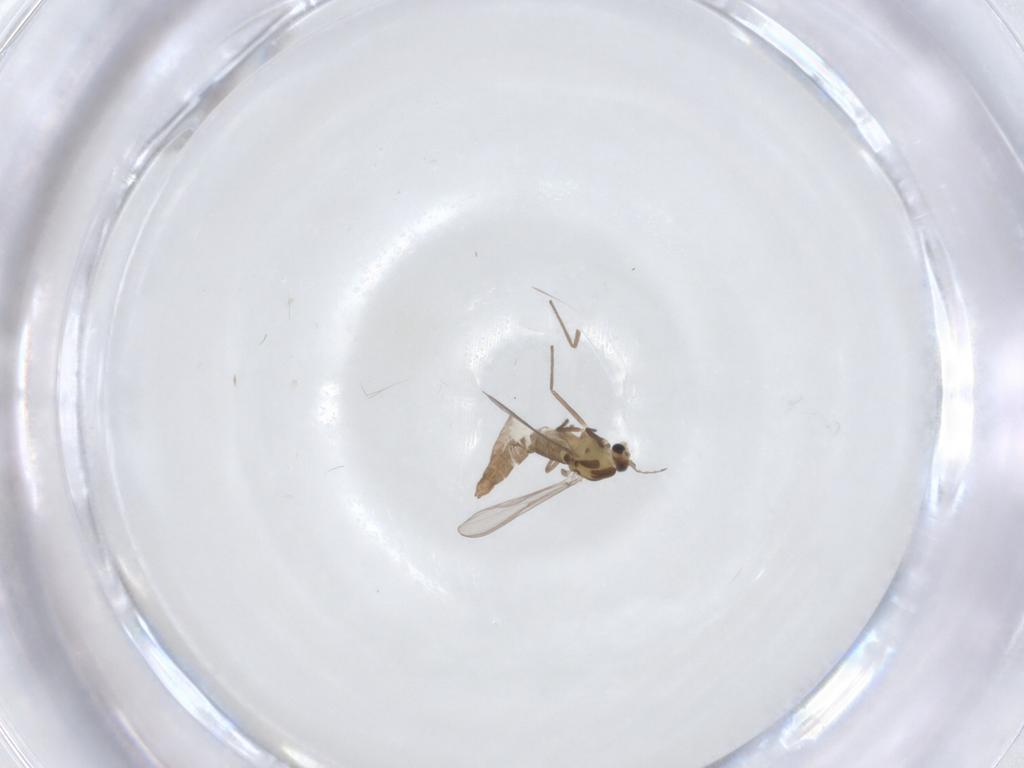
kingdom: Animalia
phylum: Arthropoda
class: Insecta
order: Diptera
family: Chironomidae
